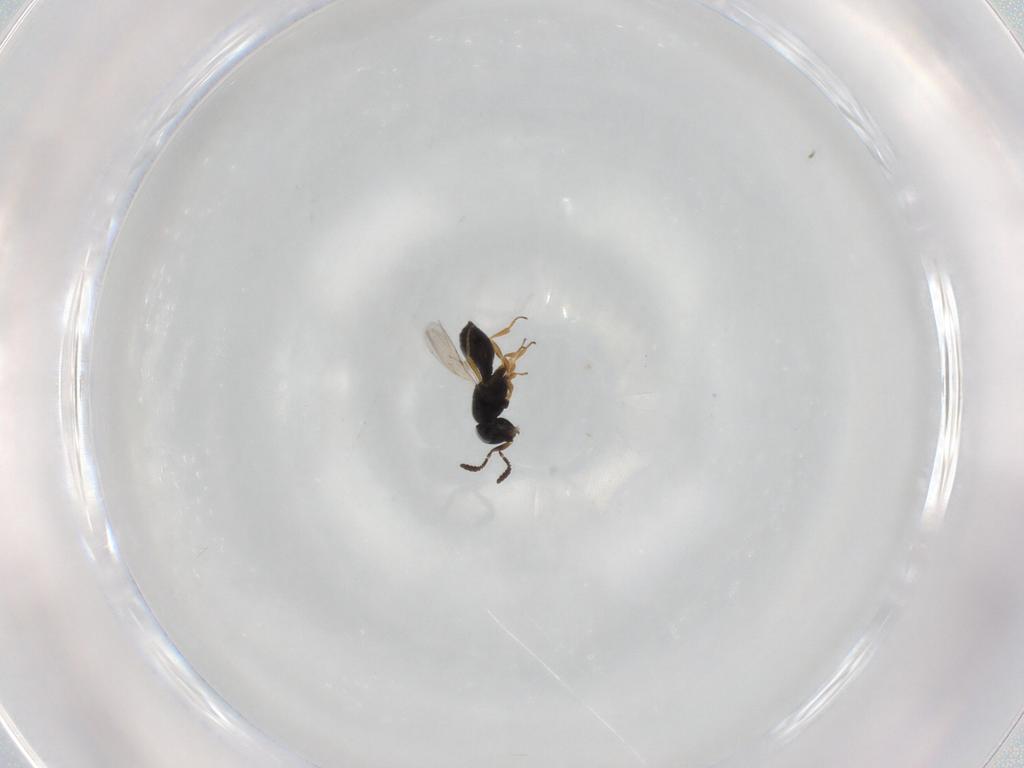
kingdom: Animalia
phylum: Arthropoda
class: Insecta
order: Hymenoptera
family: Scelionidae
